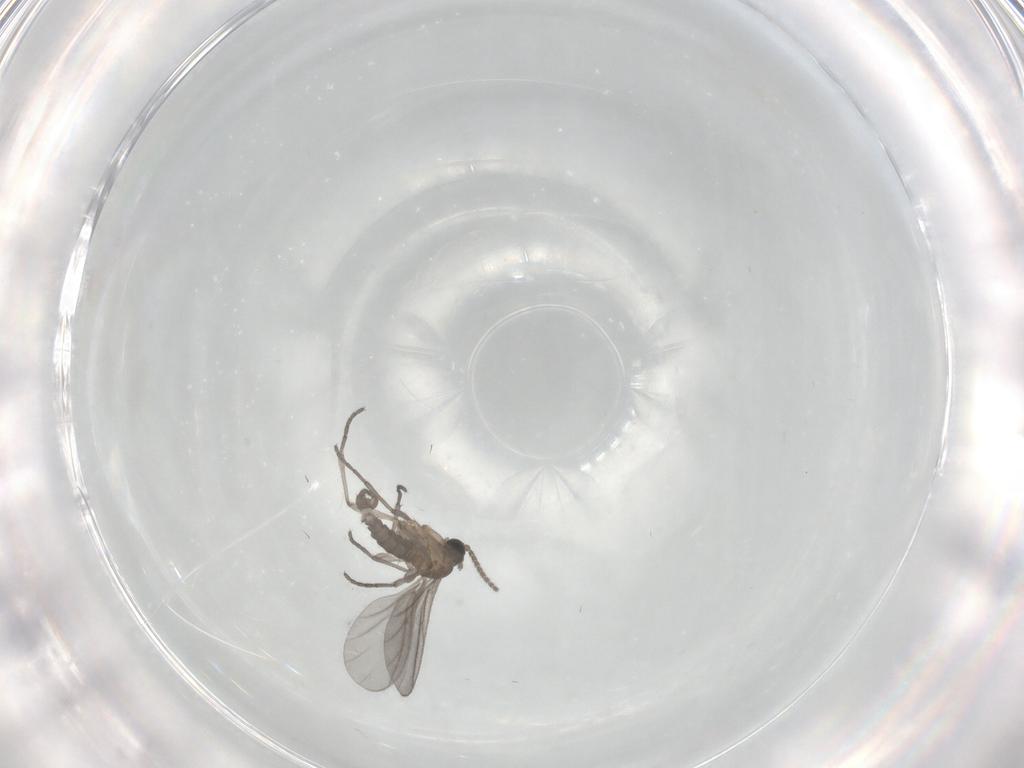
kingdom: Animalia
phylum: Arthropoda
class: Insecta
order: Diptera
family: Sciaridae
